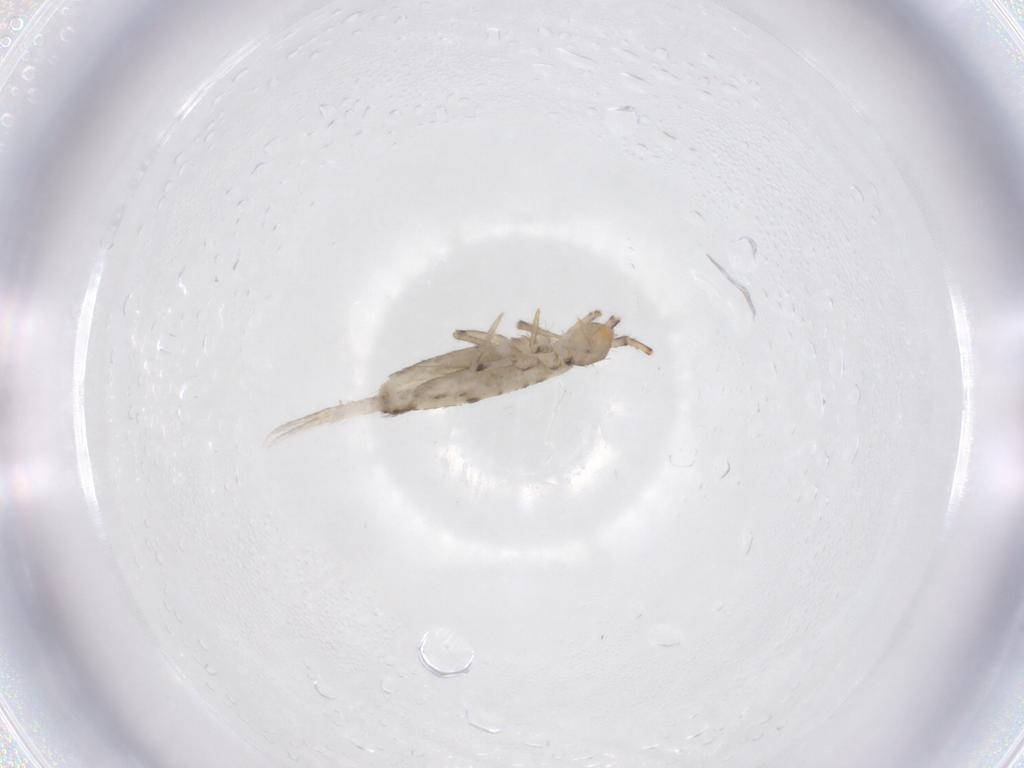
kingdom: Animalia
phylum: Arthropoda
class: Collembola
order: Entomobryomorpha
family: Entomobryidae
